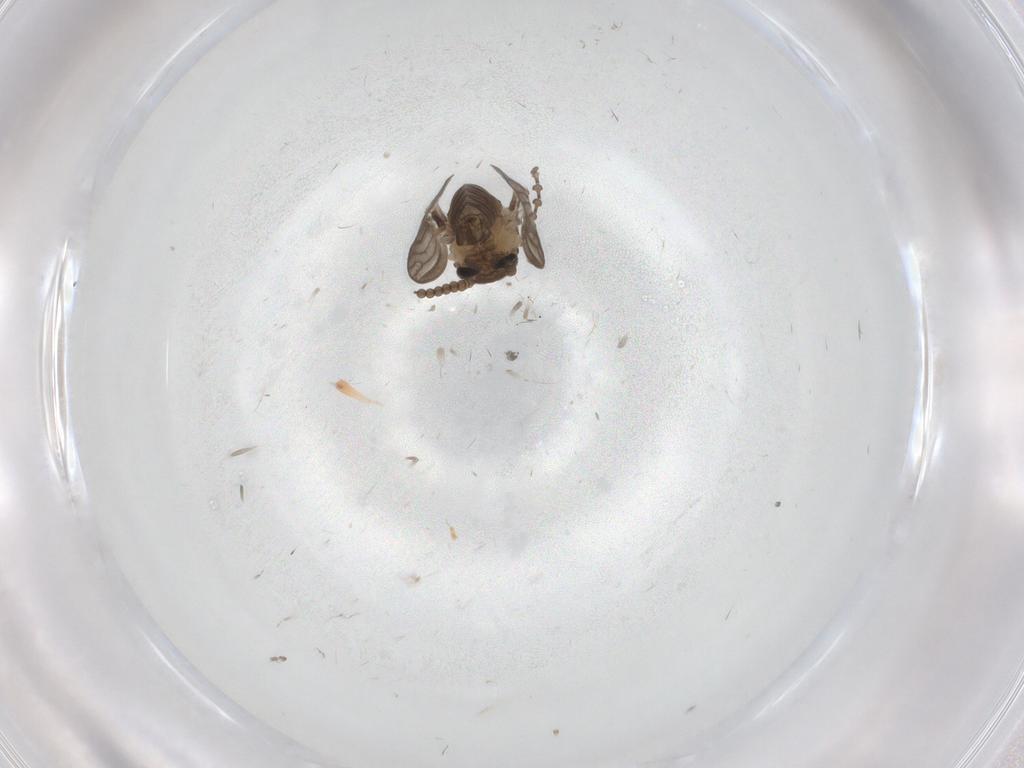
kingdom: Animalia
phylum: Arthropoda
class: Insecta
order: Diptera
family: Psychodidae
